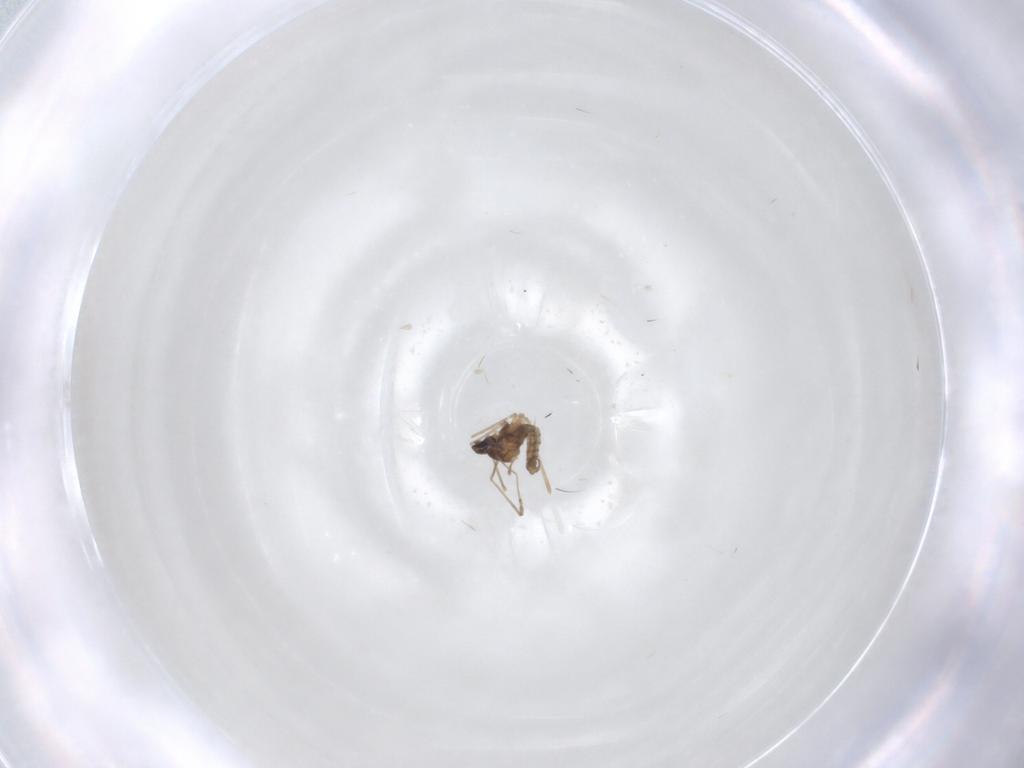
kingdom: Animalia
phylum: Arthropoda
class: Insecta
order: Diptera
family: Cecidomyiidae
